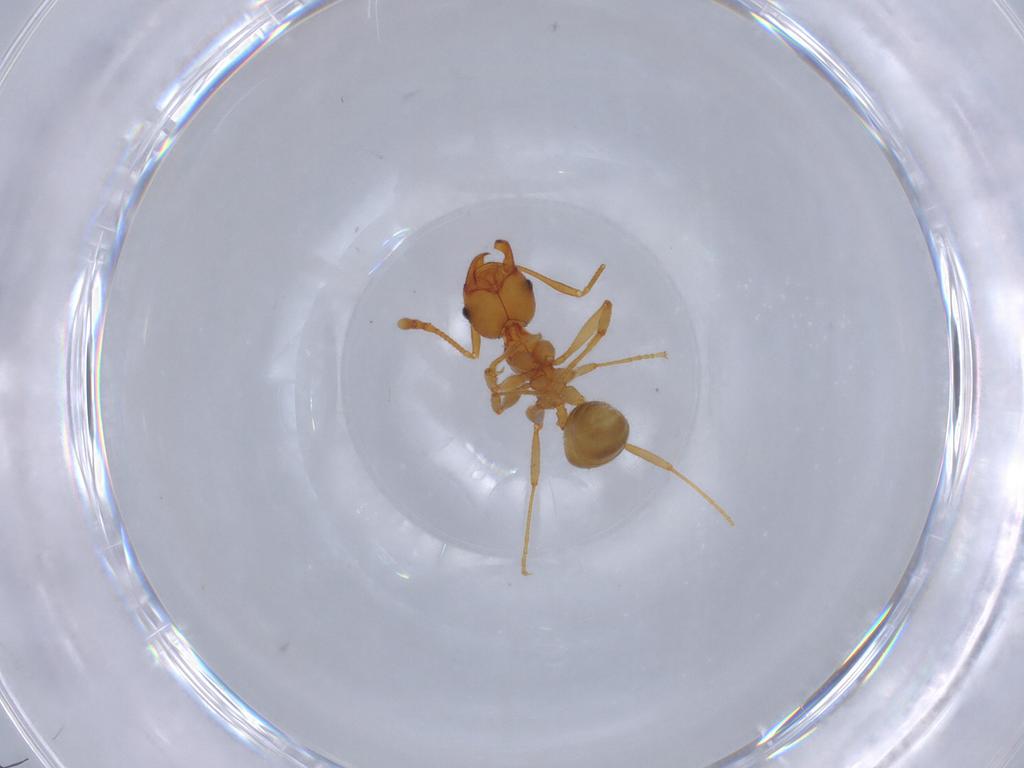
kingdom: Animalia
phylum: Arthropoda
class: Insecta
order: Hymenoptera
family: Formicidae
